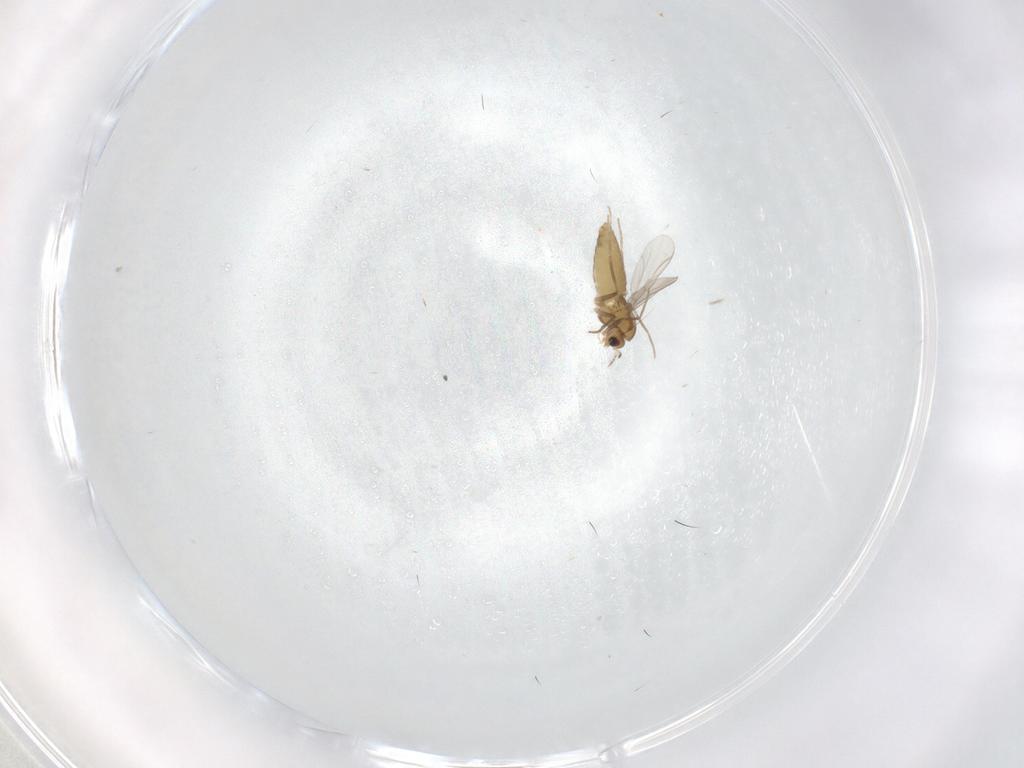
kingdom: Animalia
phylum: Arthropoda
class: Insecta
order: Diptera
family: Chironomidae
